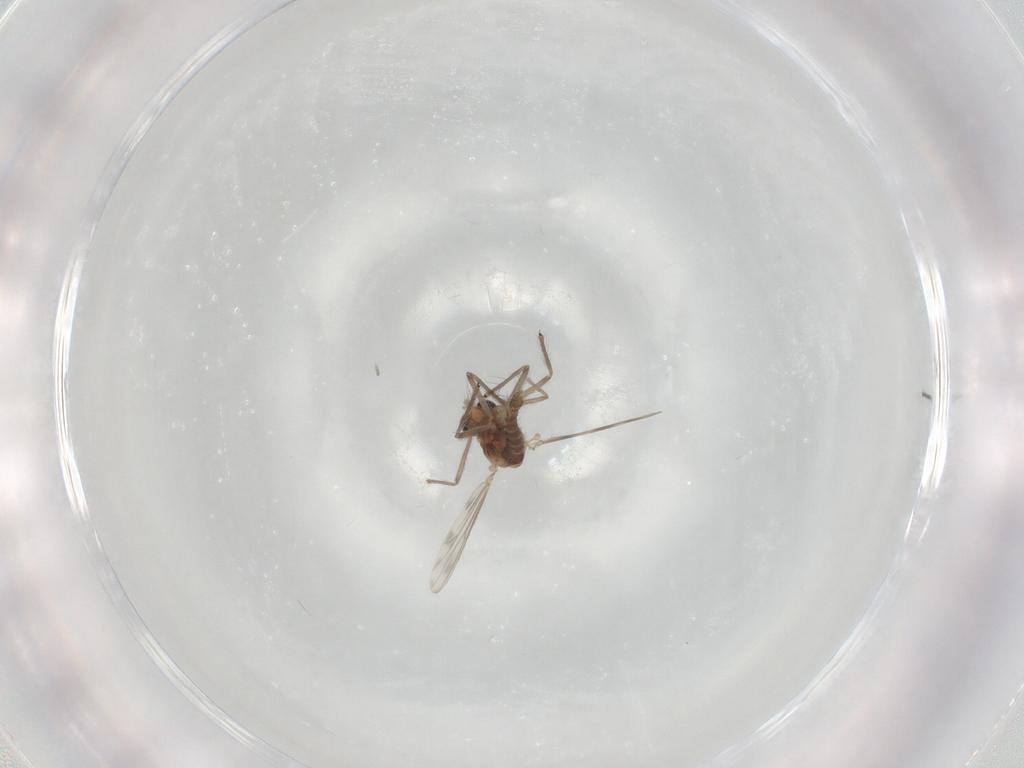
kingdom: Animalia
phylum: Arthropoda
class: Insecta
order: Diptera
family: Chironomidae
